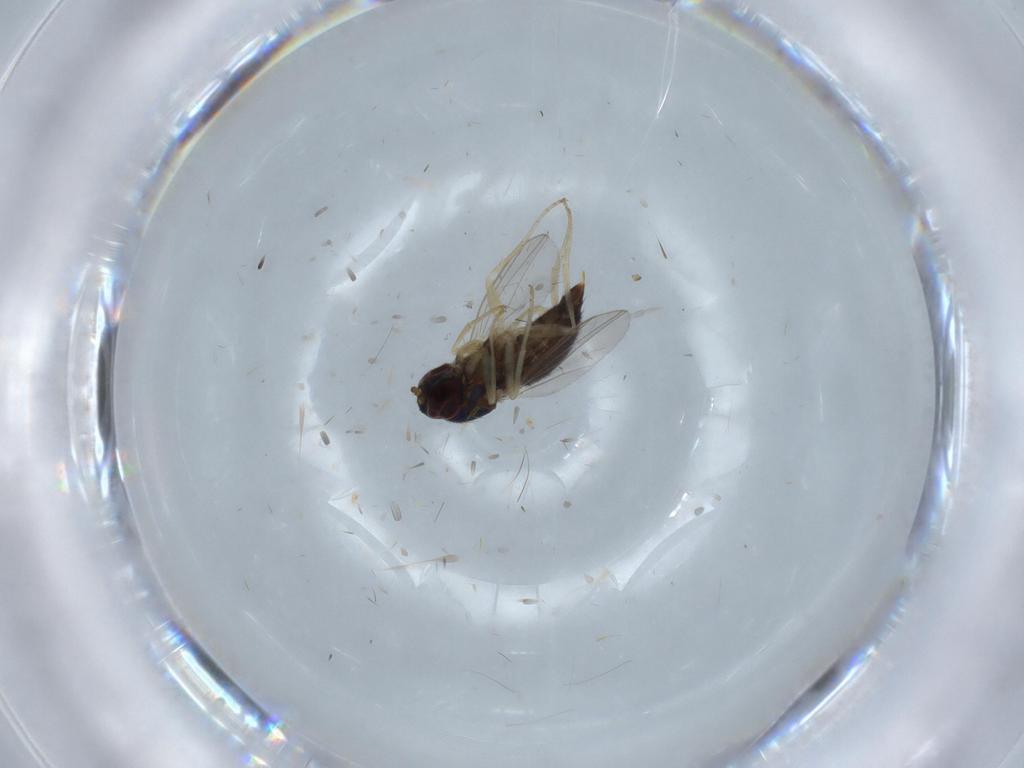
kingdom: Animalia
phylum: Arthropoda
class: Insecta
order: Diptera
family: Dolichopodidae
